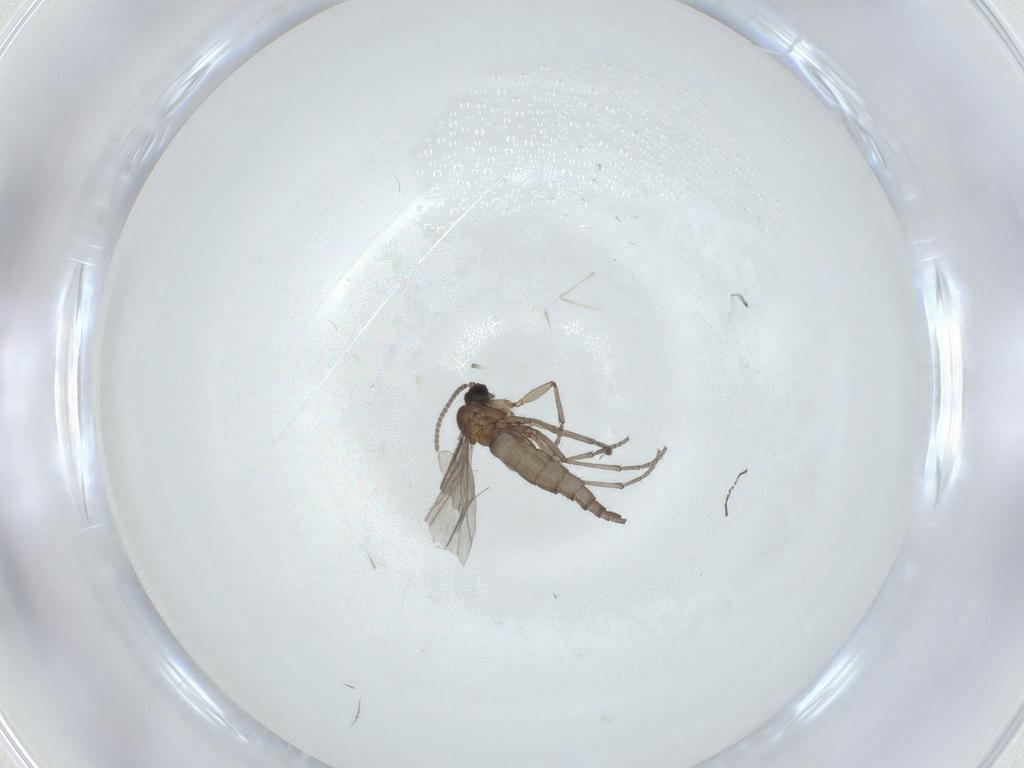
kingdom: Animalia
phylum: Arthropoda
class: Insecta
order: Diptera
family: Sciaridae
